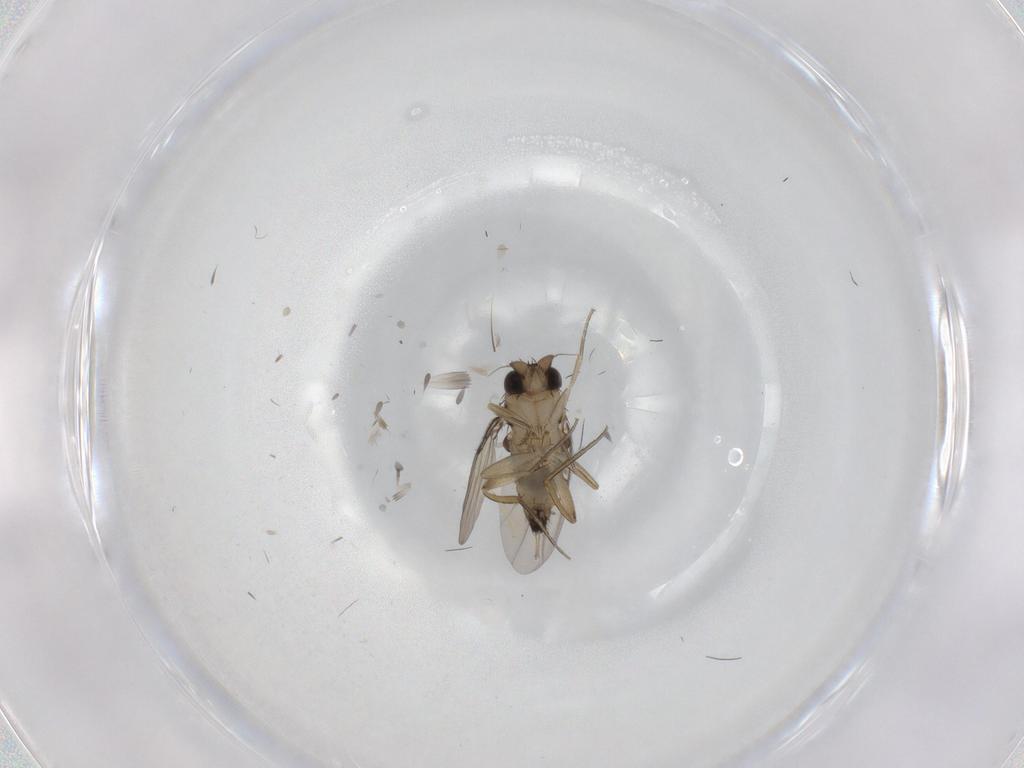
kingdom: Animalia
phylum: Arthropoda
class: Insecta
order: Diptera
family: Phoridae
